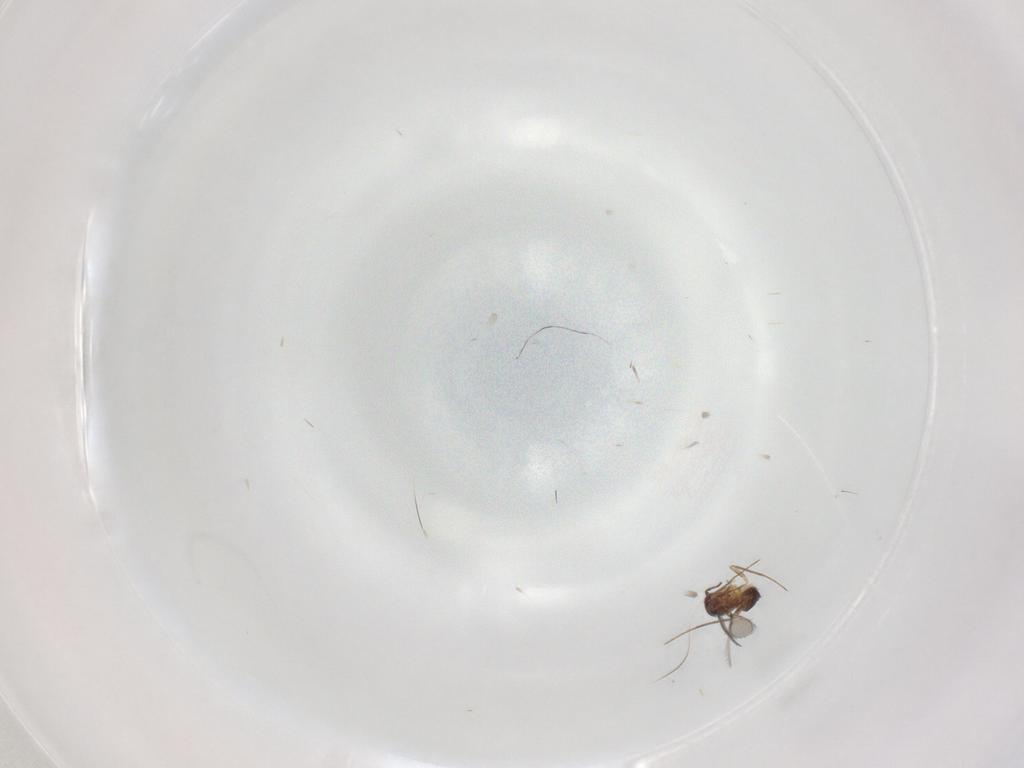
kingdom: Animalia
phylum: Arthropoda
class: Insecta
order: Hymenoptera
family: Mymaridae
